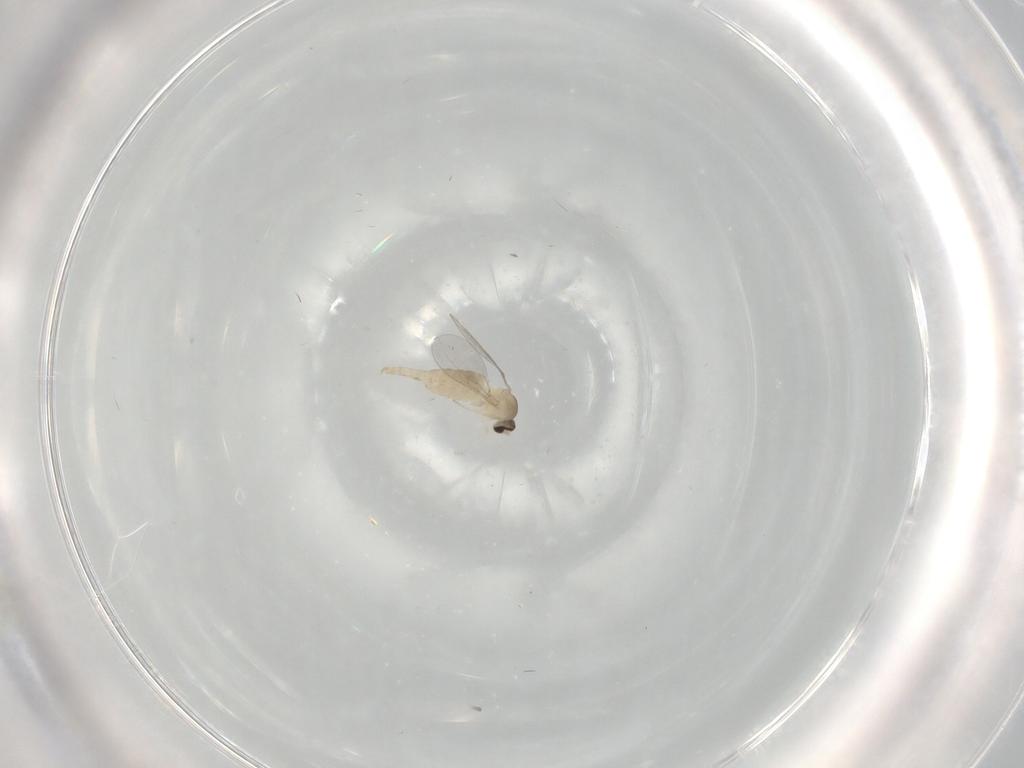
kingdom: Animalia
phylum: Arthropoda
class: Insecta
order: Diptera
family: Cecidomyiidae
